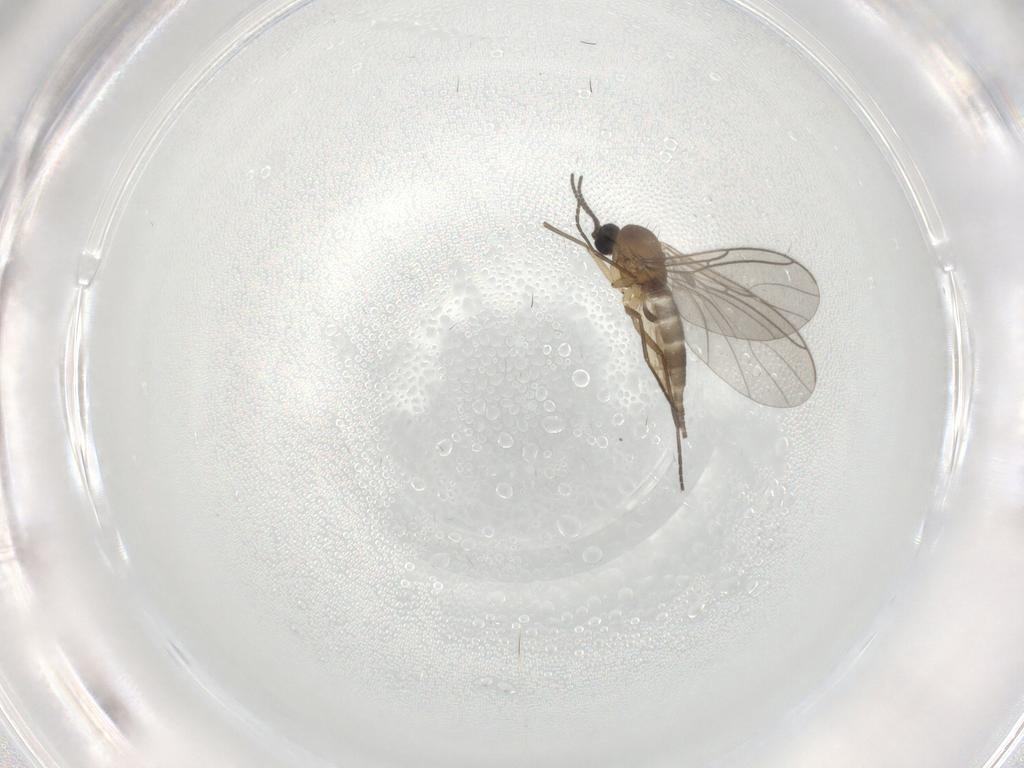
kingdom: Animalia
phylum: Arthropoda
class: Insecta
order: Diptera
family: Sciaridae
